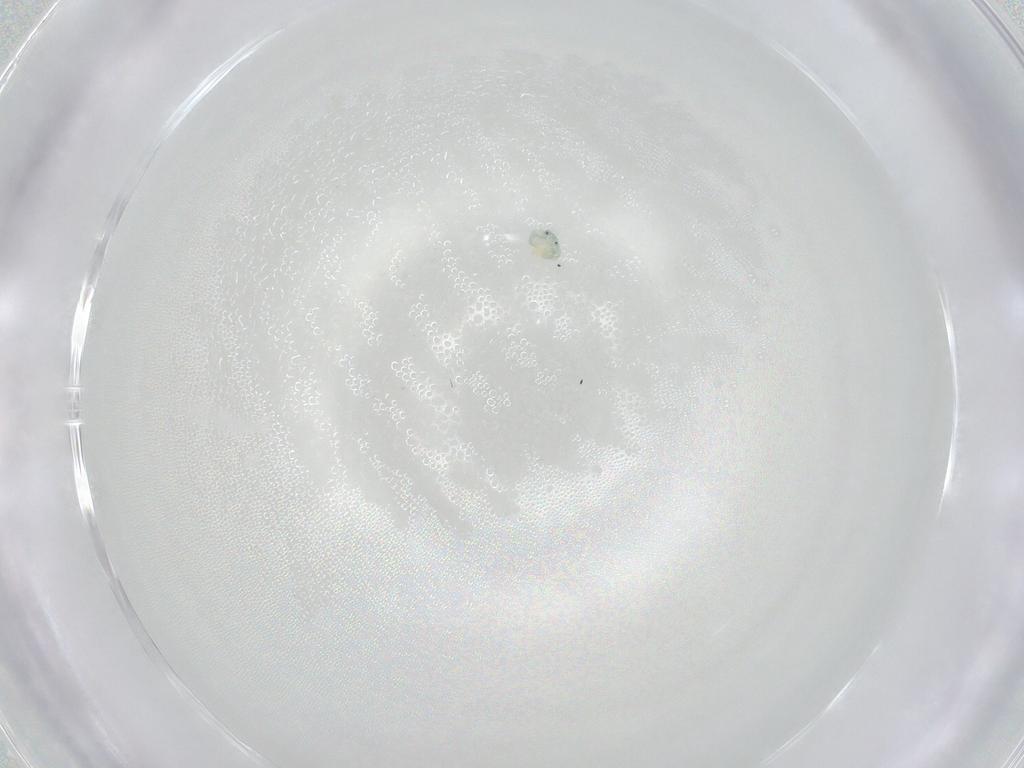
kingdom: Animalia
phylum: Arthropoda
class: Arachnida
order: Trombidiformes
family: Arrenuridae
